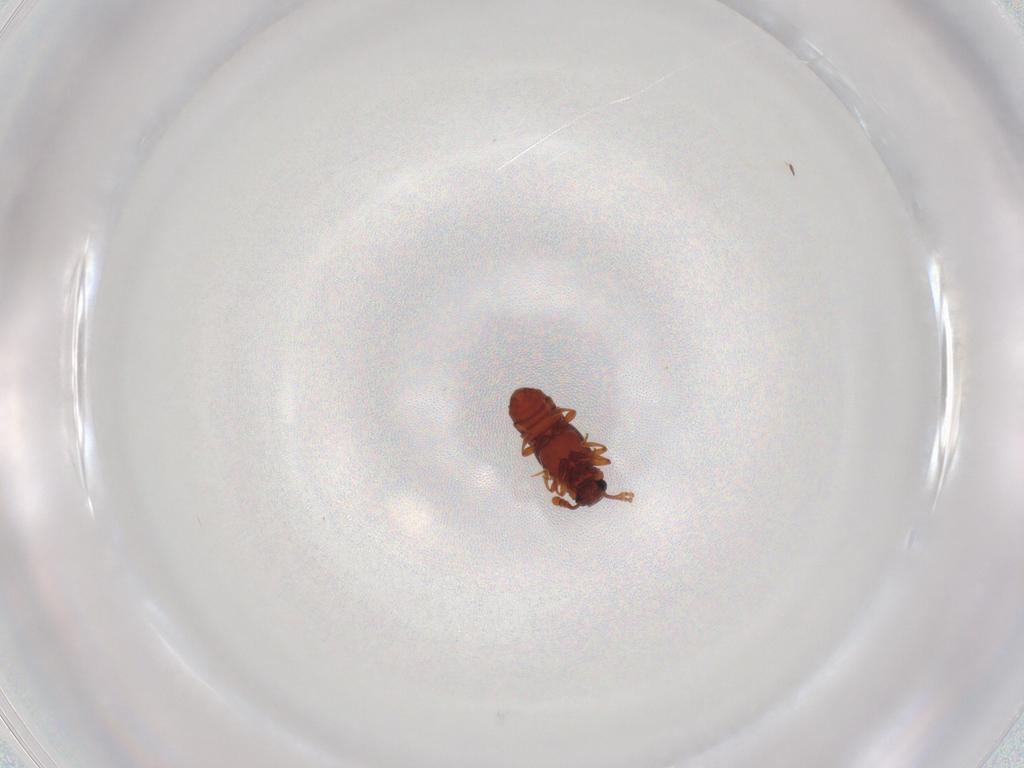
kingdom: Animalia
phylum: Arthropoda
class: Insecta
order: Coleoptera
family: Staphylinidae
